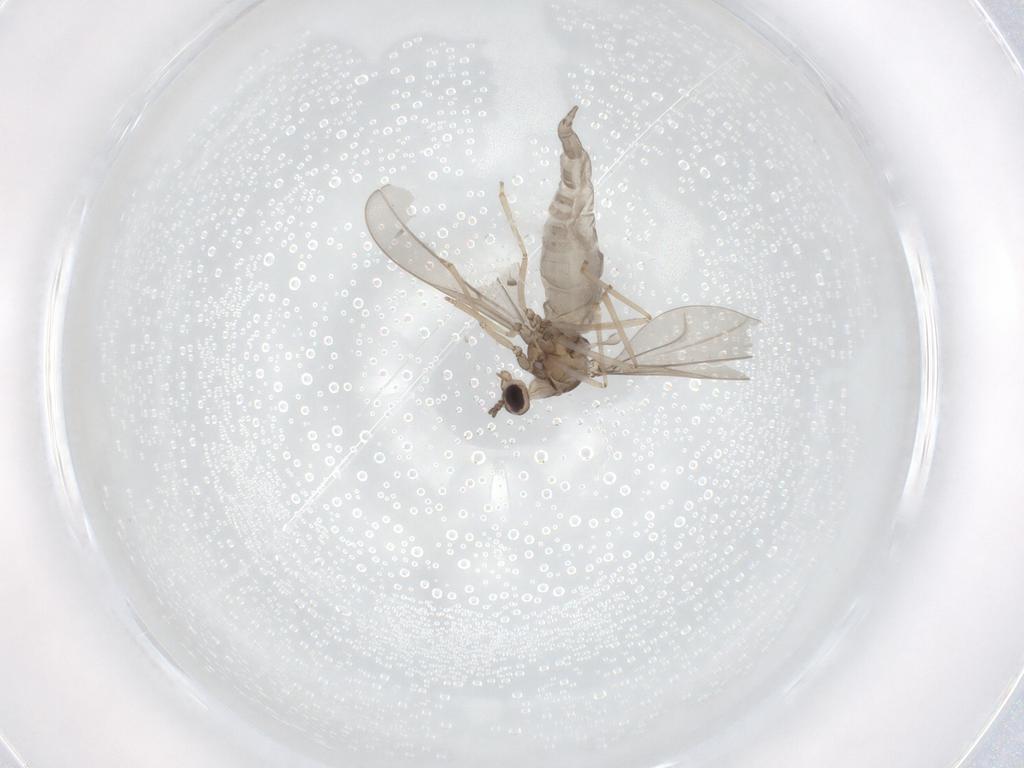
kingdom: Animalia
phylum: Arthropoda
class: Insecta
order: Diptera
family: Cecidomyiidae
